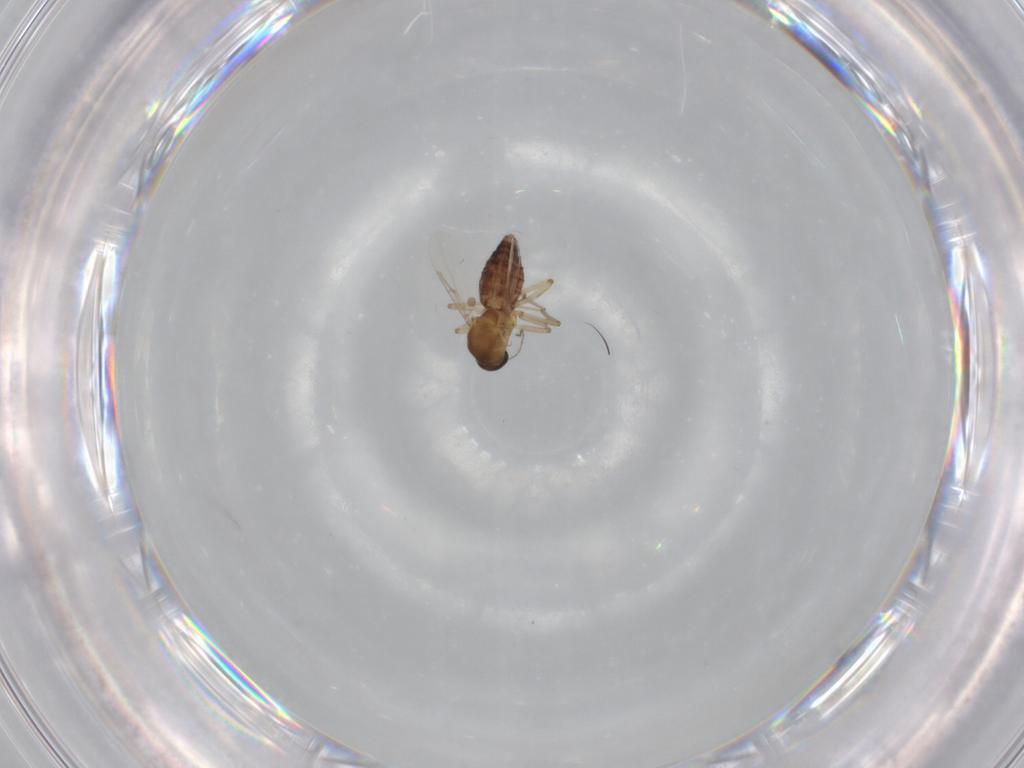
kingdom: Animalia
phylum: Arthropoda
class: Insecta
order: Diptera
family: Ceratopogonidae
